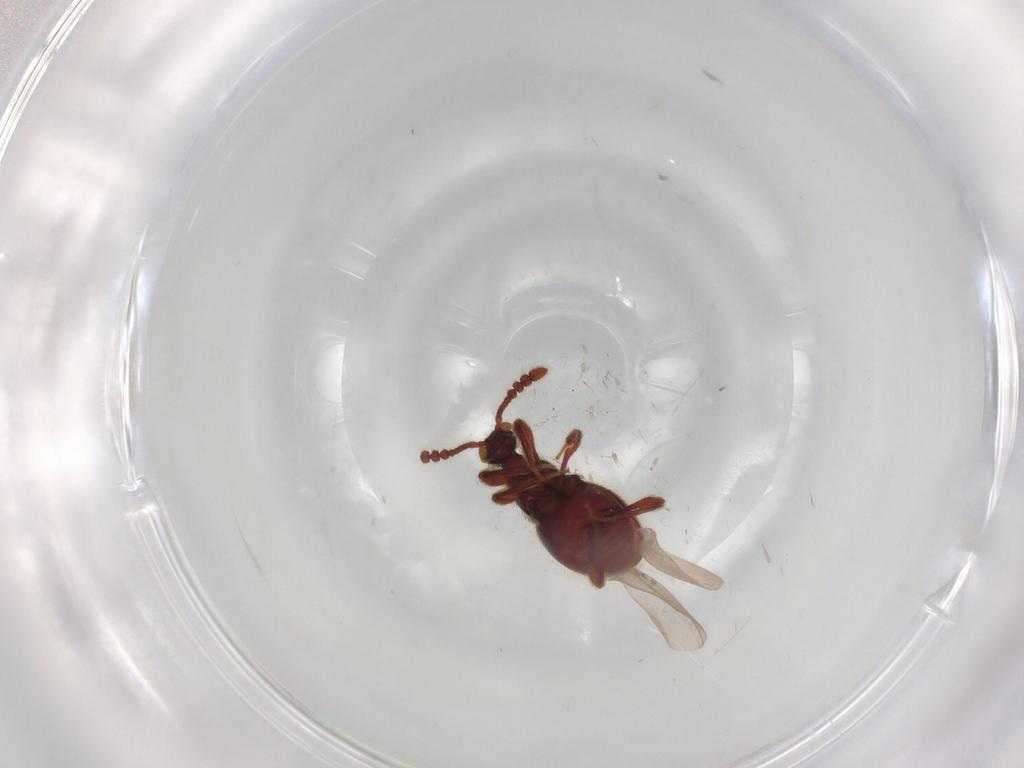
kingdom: Animalia
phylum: Arthropoda
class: Insecta
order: Coleoptera
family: Staphylinidae
